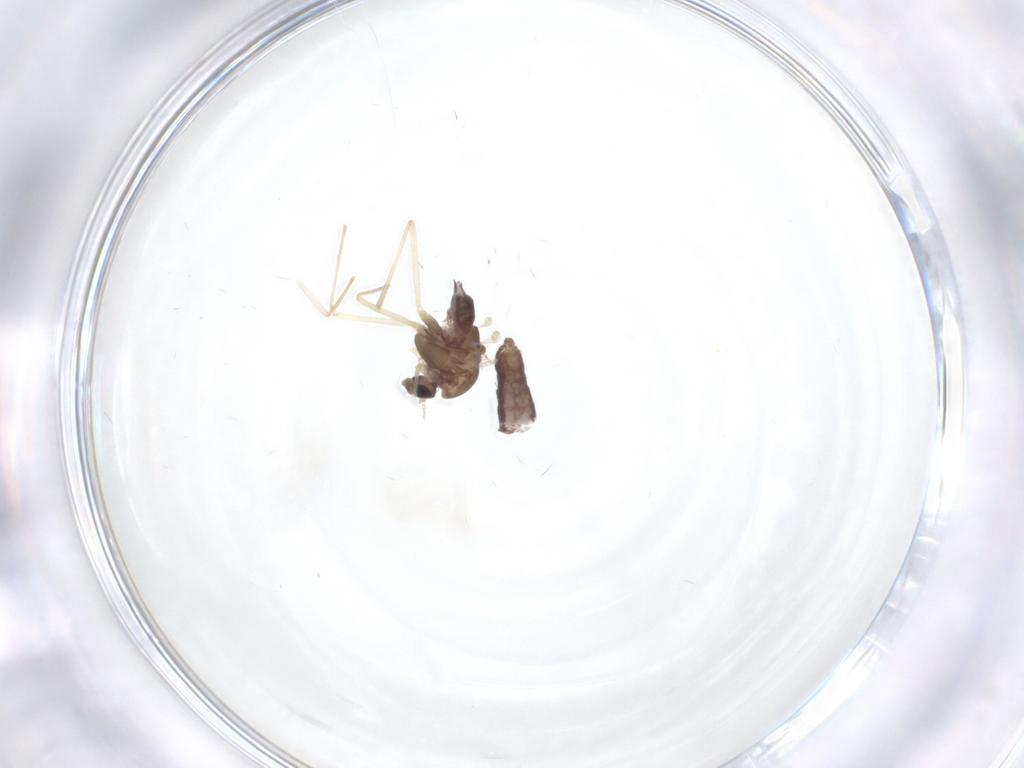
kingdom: Animalia
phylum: Arthropoda
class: Insecta
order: Diptera
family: Chironomidae
